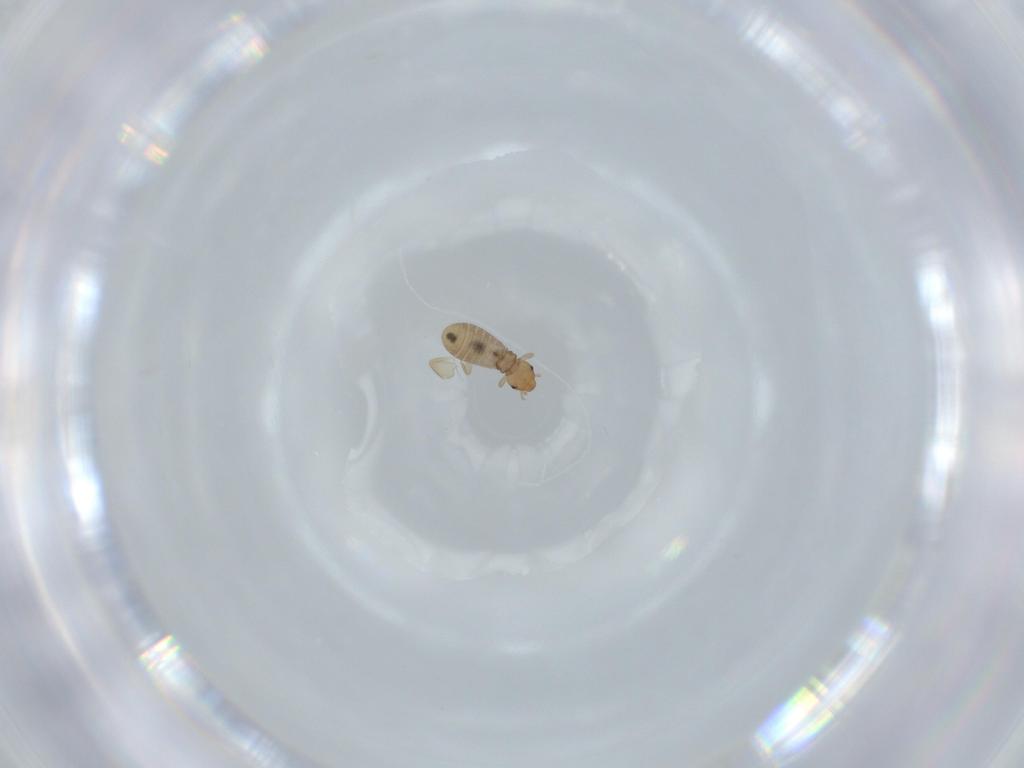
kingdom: Animalia
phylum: Arthropoda
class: Insecta
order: Psocodea
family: Liposcelididae
